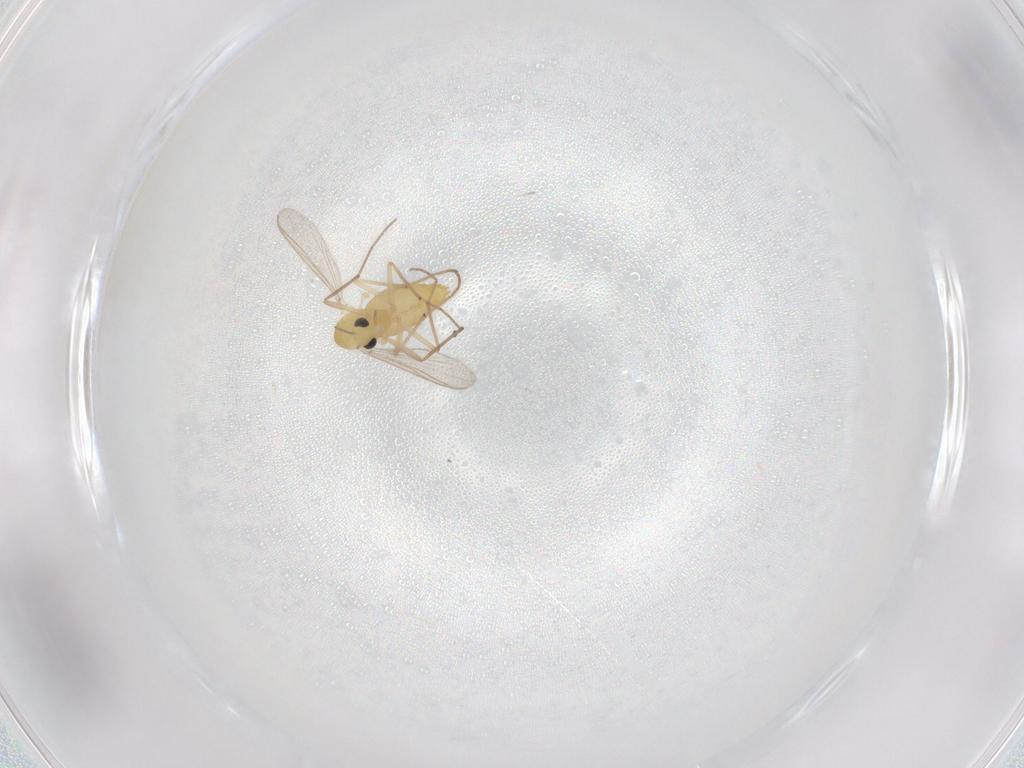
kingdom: Animalia
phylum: Arthropoda
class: Insecta
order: Diptera
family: Chironomidae
